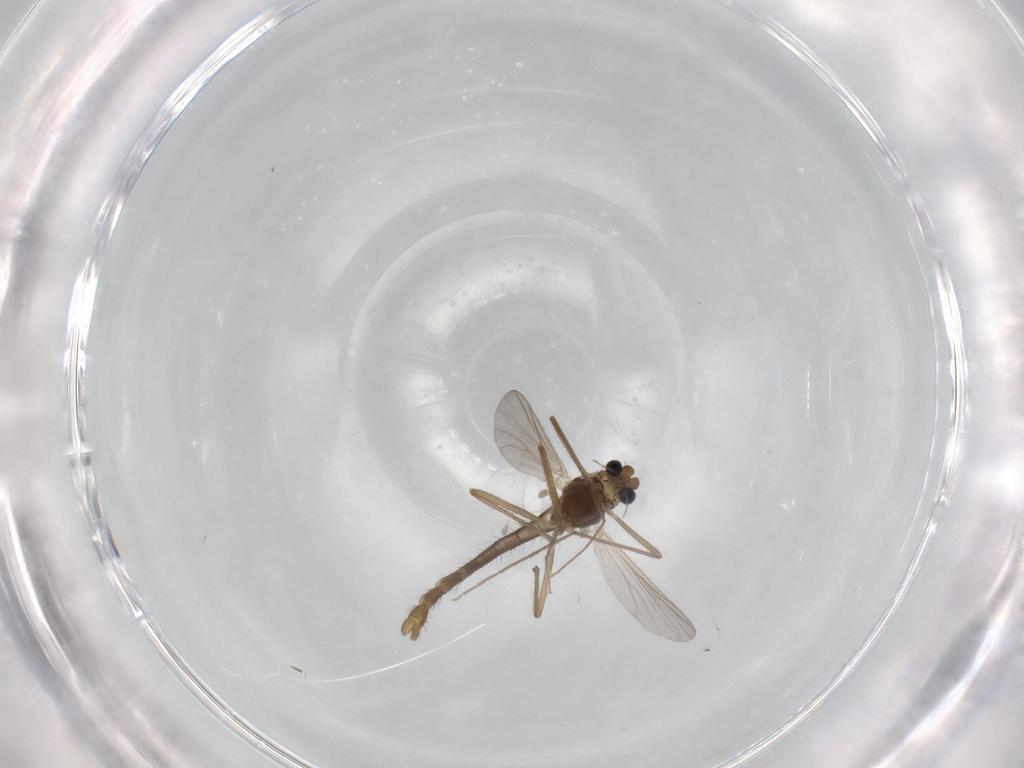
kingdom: Animalia
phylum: Arthropoda
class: Insecta
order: Diptera
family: Chironomidae
